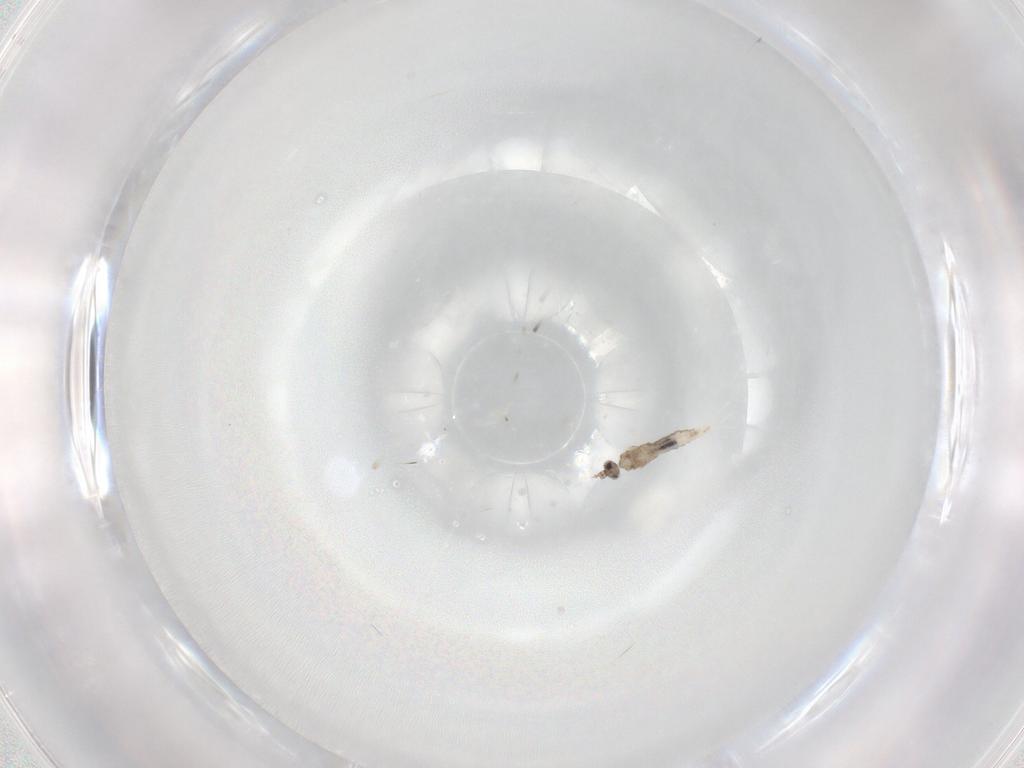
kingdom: Animalia
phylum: Arthropoda
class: Insecta
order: Diptera
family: Cecidomyiidae
